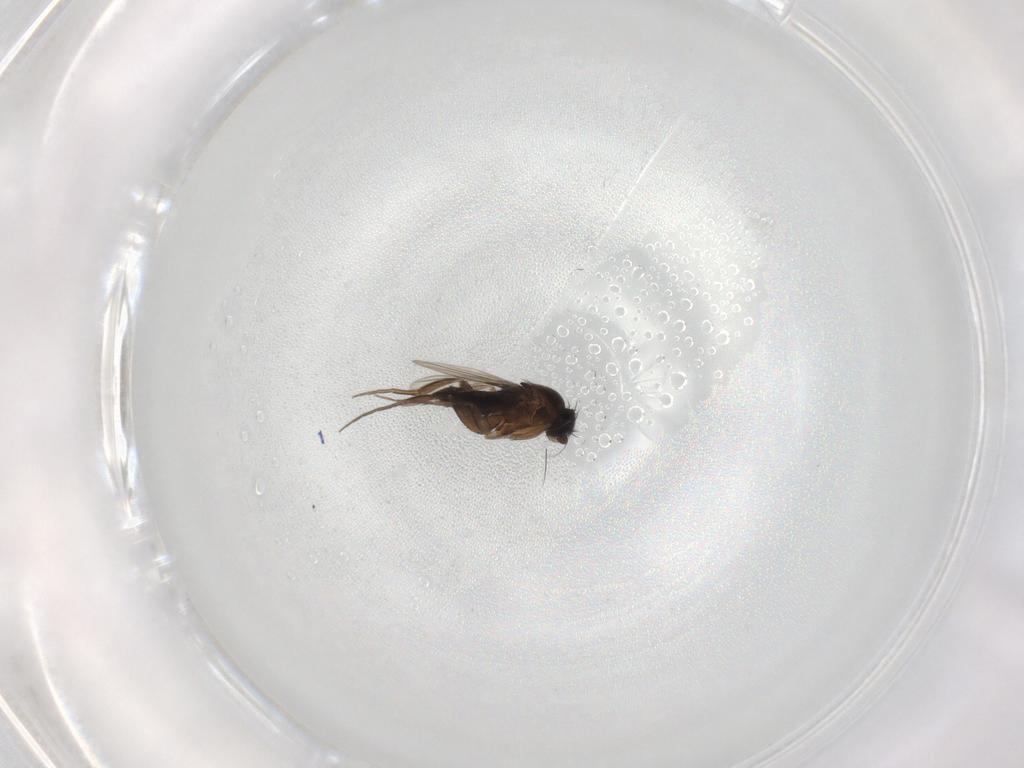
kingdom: Animalia
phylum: Arthropoda
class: Insecta
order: Diptera
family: Phoridae
